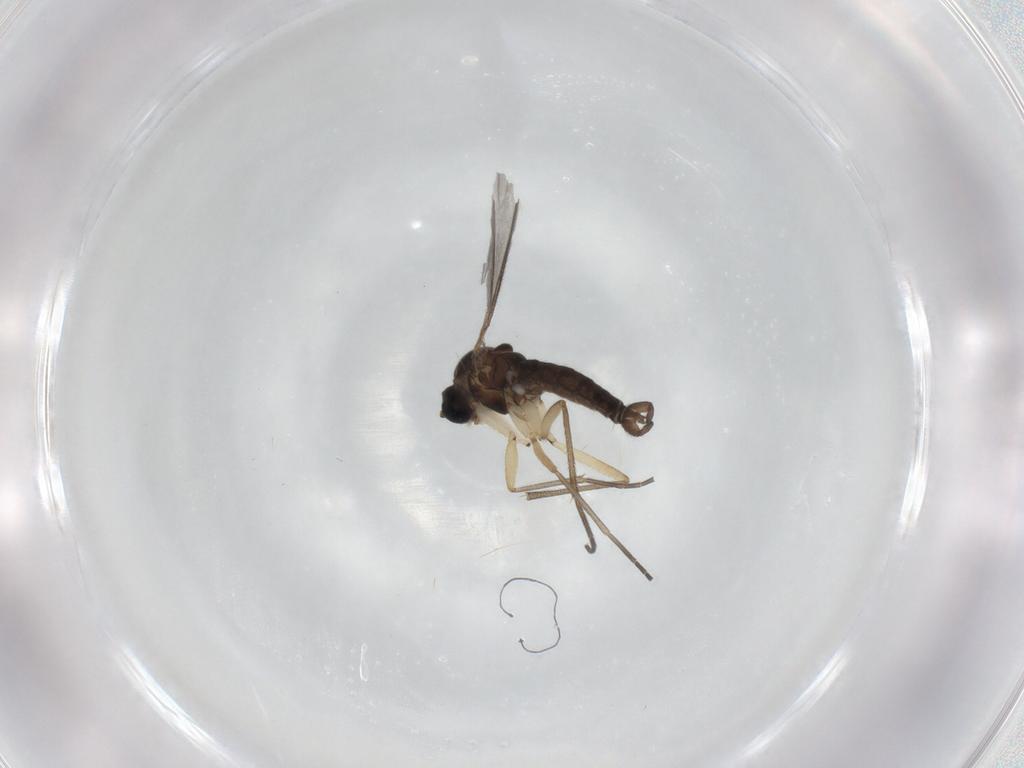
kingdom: Animalia
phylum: Arthropoda
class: Insecta
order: Diptera
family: Sciaridae
